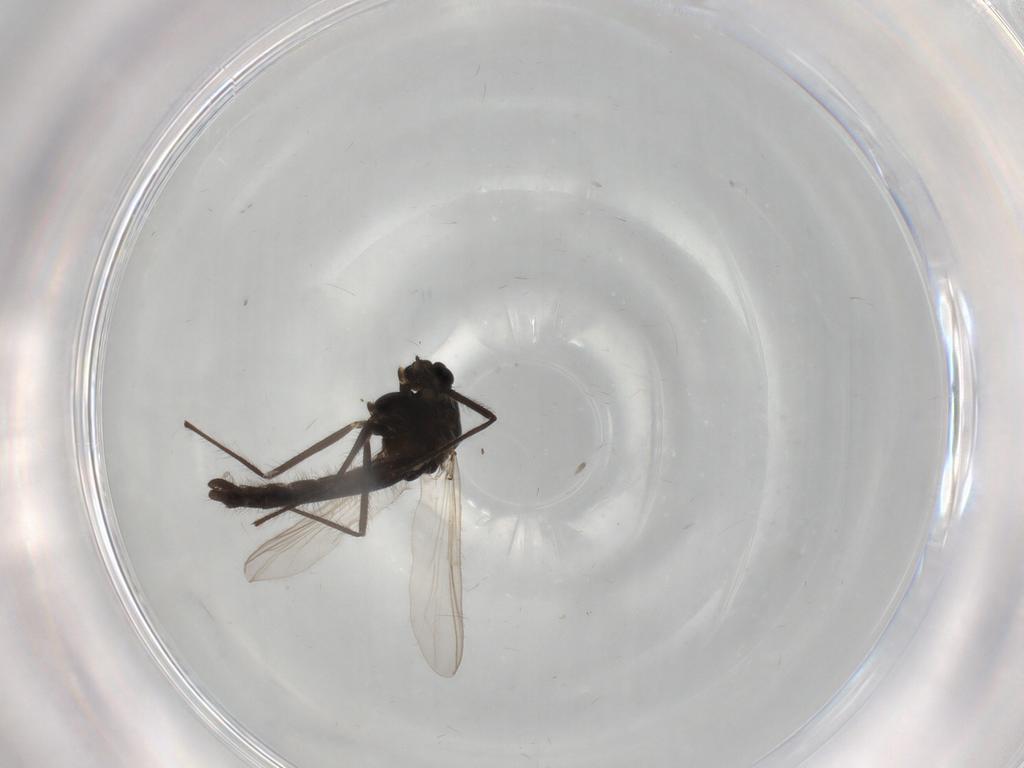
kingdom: Animalia
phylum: Arthropoda
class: Insecta
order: Diptera
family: Chironomidae
